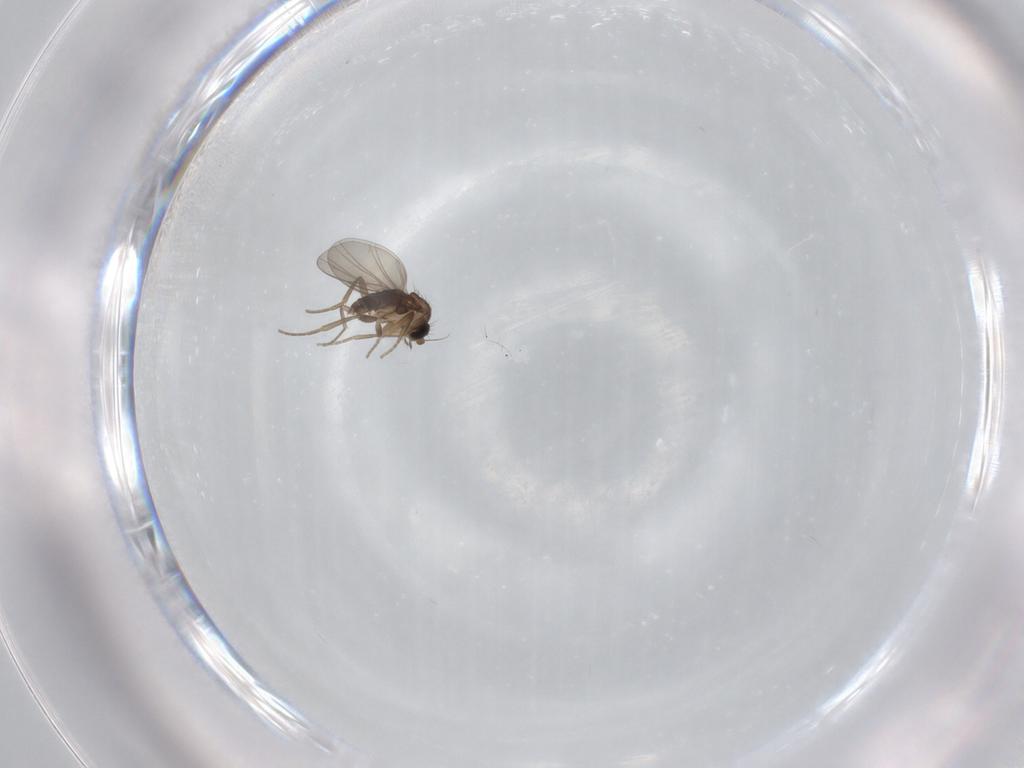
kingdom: Animalia
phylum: Arthropoda
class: Insecta
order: Diptera
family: Phoridae
